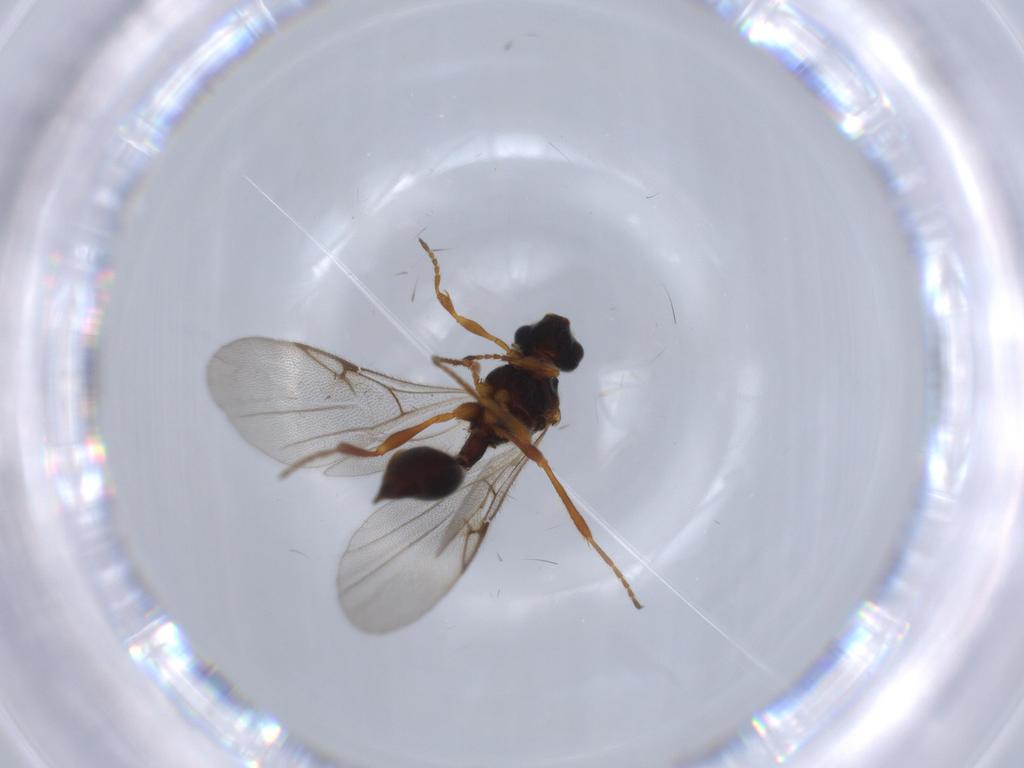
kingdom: Animalia
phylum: Arthropoda
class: Insecta
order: Hymenoptera
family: Diapriidae
